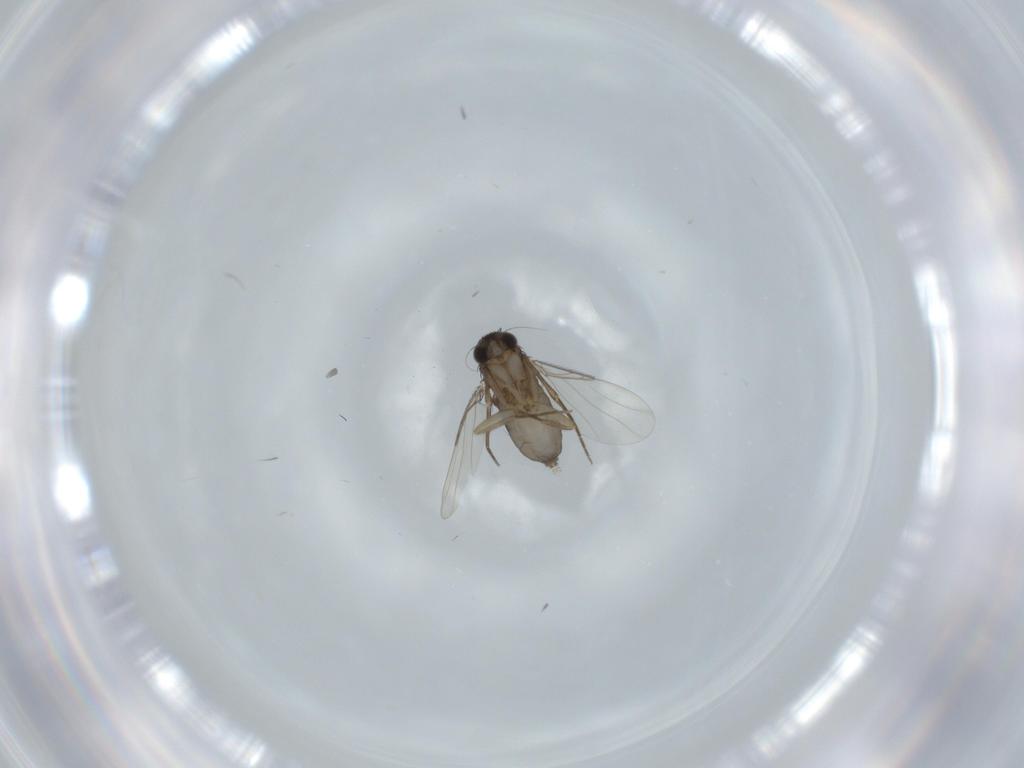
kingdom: Animalia
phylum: Arthropoda
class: Insecta
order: Diptera
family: Phoridae
